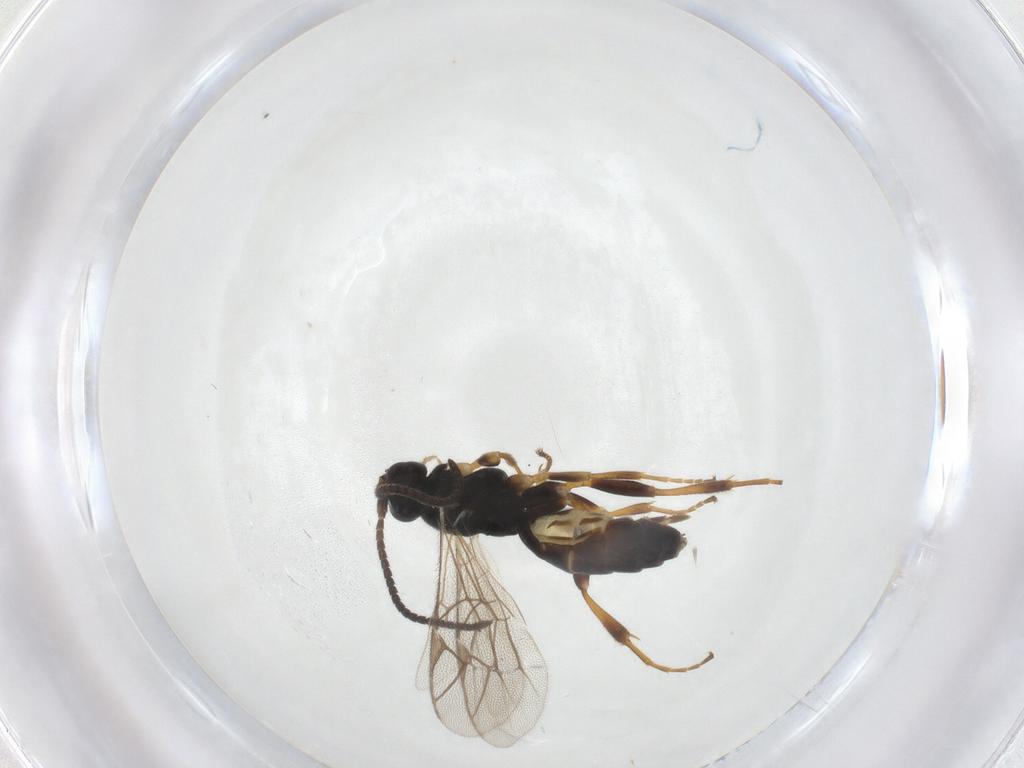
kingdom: Animalia
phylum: Arthropoda
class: Insecta
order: Hymenoptera
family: Ichneumonidae
